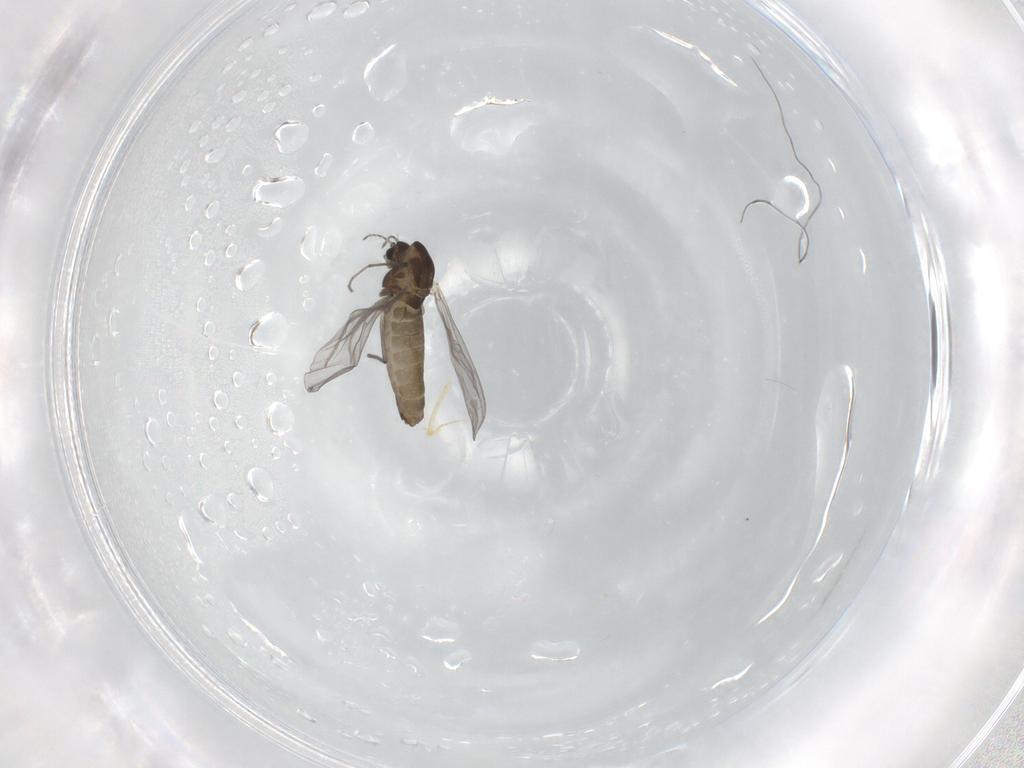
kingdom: Animalia
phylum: Arthropoda
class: Insecta
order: Diptera
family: Chironomidae
